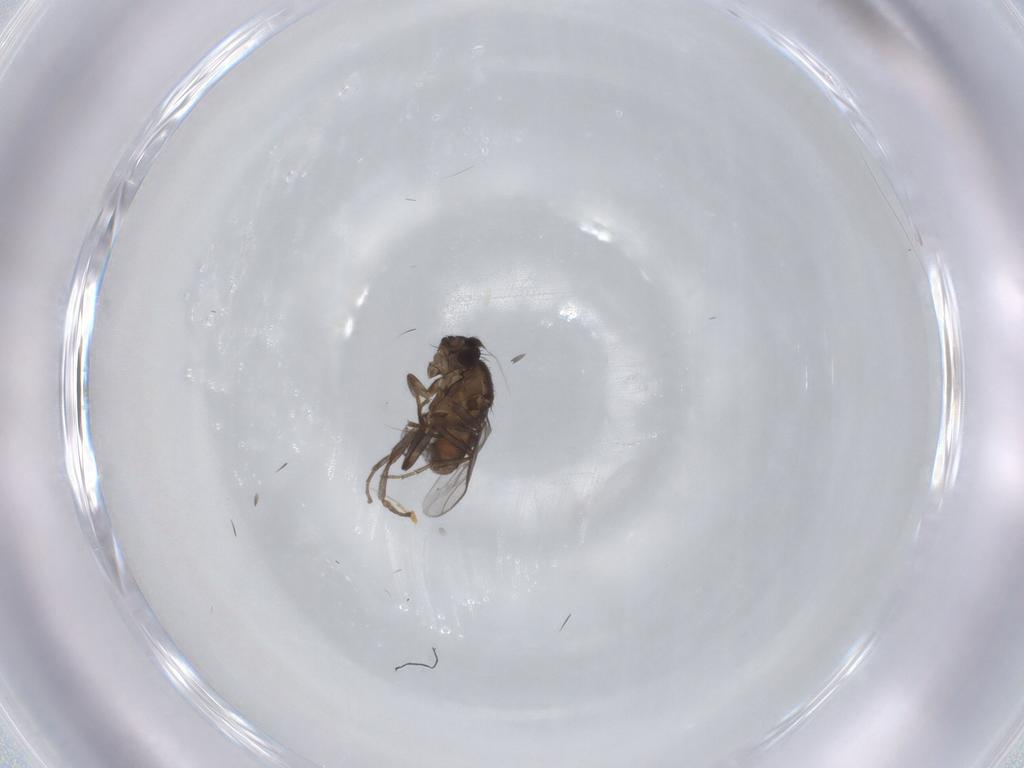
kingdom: Animalia
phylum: Arthropoda
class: Insecta
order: Diptera
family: Sphaeroceridae
